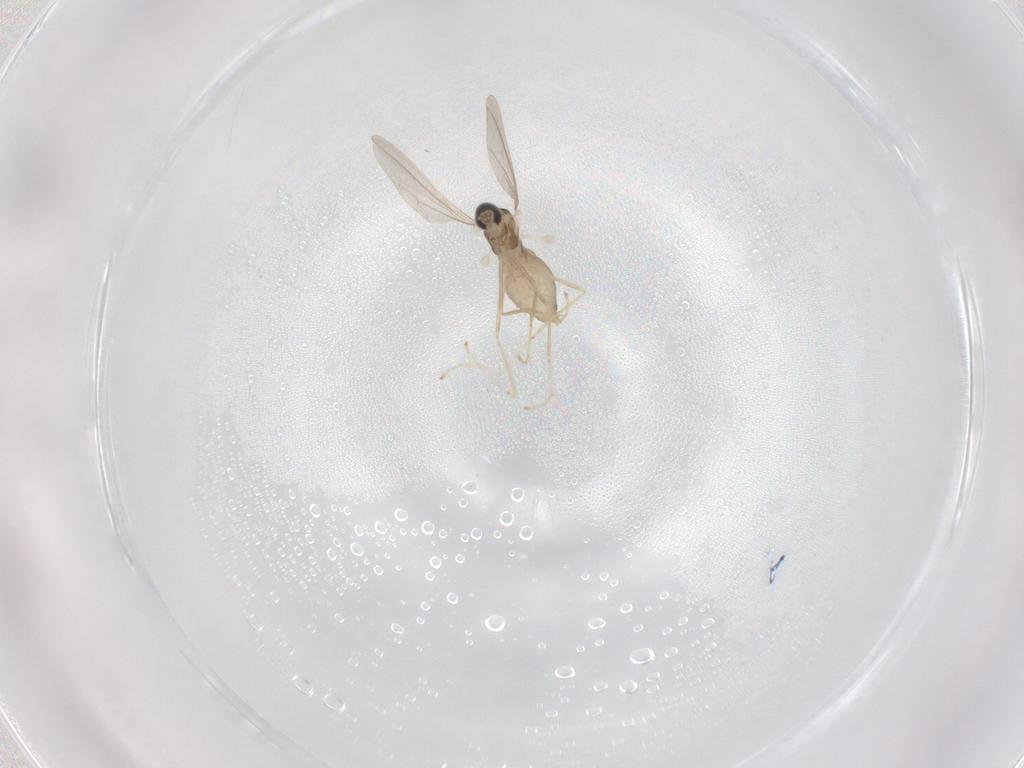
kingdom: Animalia
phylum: Arthropoda
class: Insecta
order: Diptera
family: Cecidomyiidae
